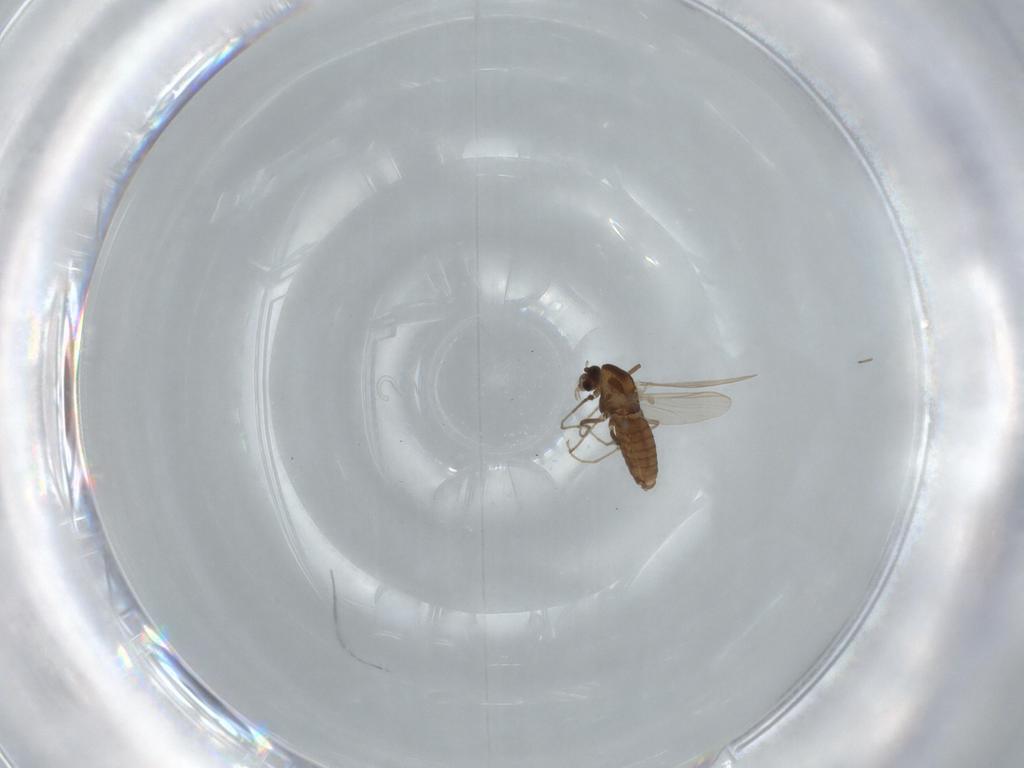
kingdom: Animalia
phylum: Arthropoda
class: Insecta
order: Diptera
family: Chironomidae
